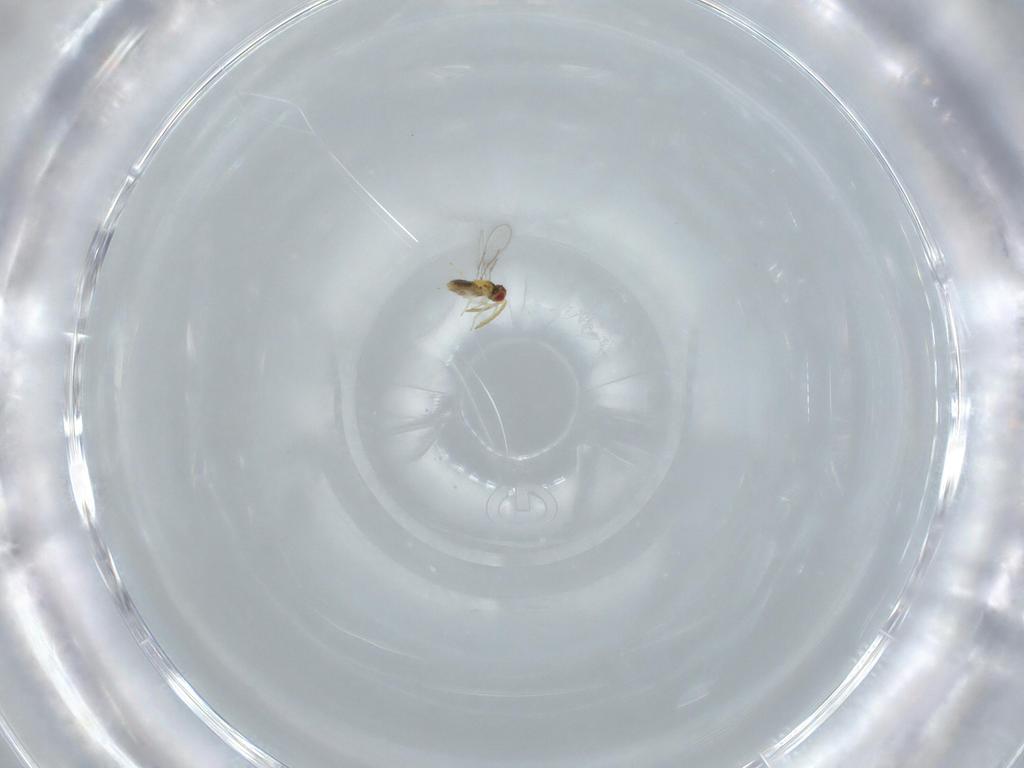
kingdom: Animalia
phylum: Arthropoda
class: Insecta
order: Hymenoptera
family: Aphelinidae
